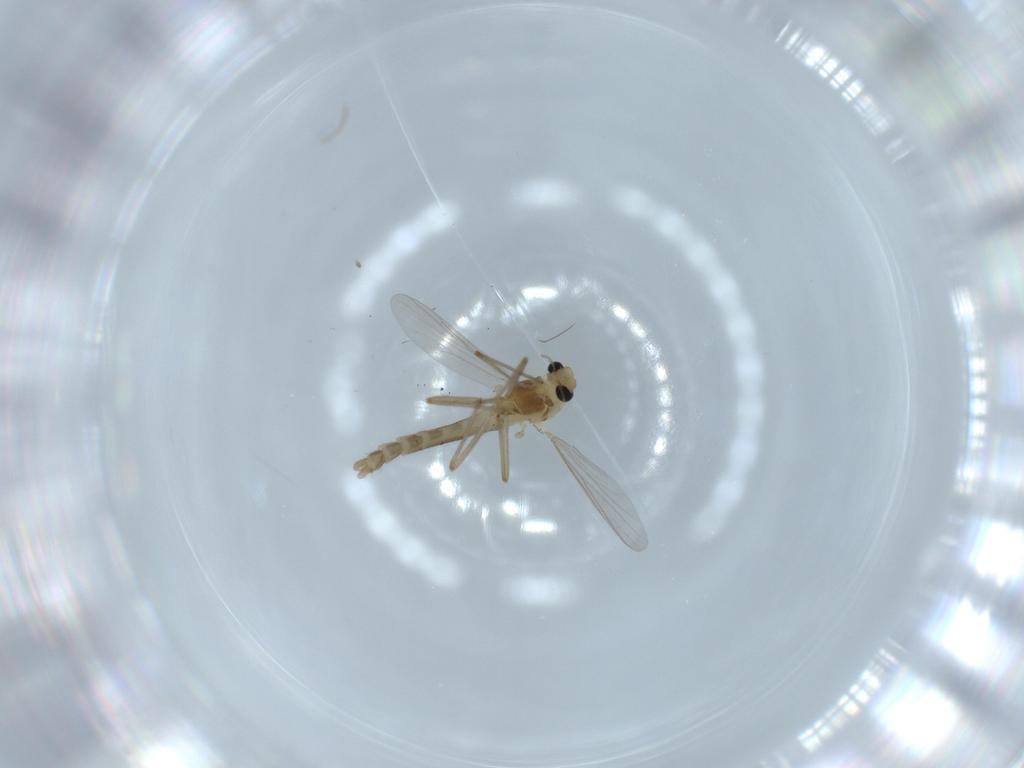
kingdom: Animalia
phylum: Arthropoda
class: Insecta
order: Diptera
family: Chironomidae
